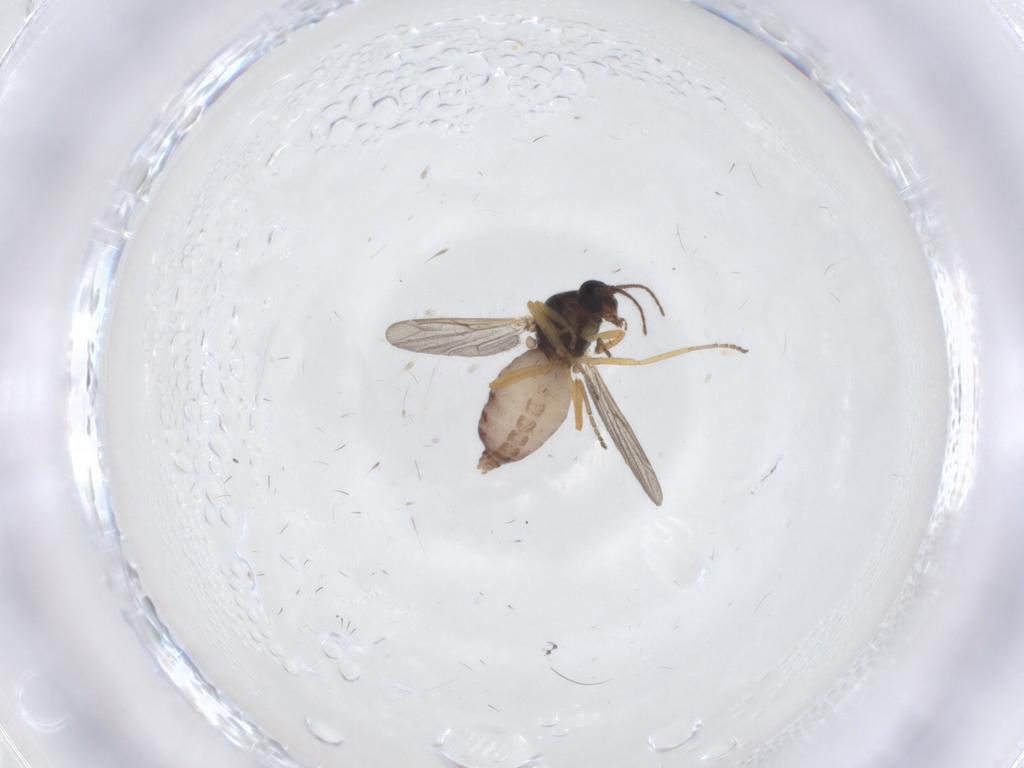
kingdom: Animalia
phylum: Arthropoda
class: Insecta
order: Diptera
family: Ceratopogonidae
